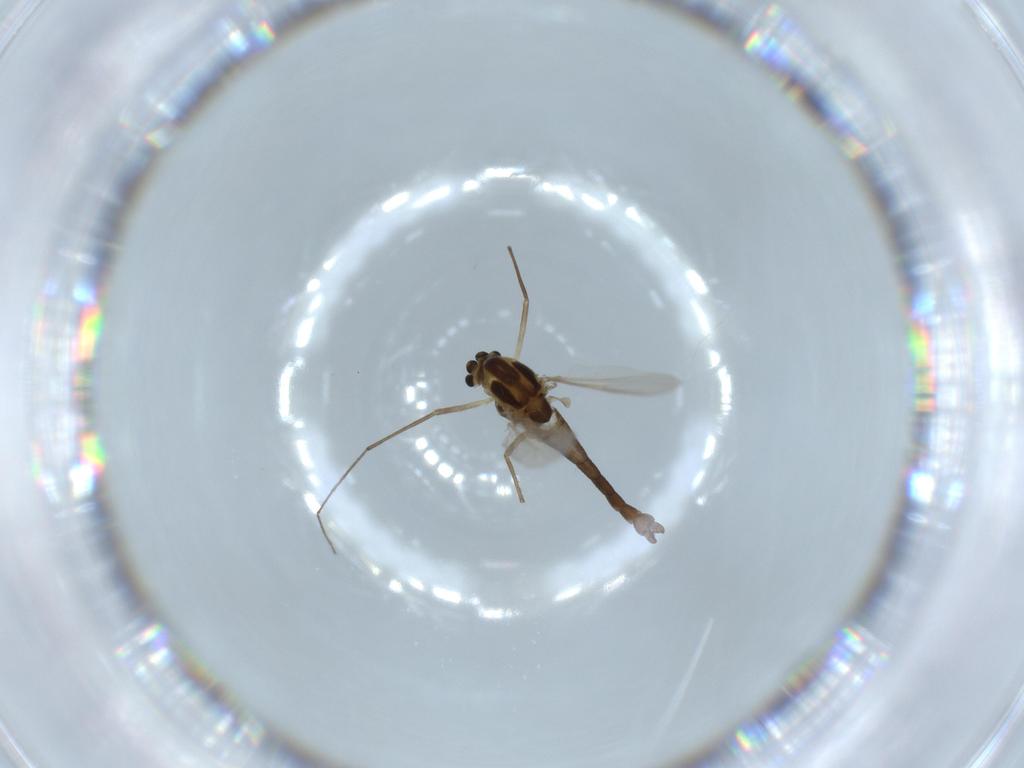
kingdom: Animalia
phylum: Arthropoda
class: Insecta
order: Diptera
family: Chironomidae
